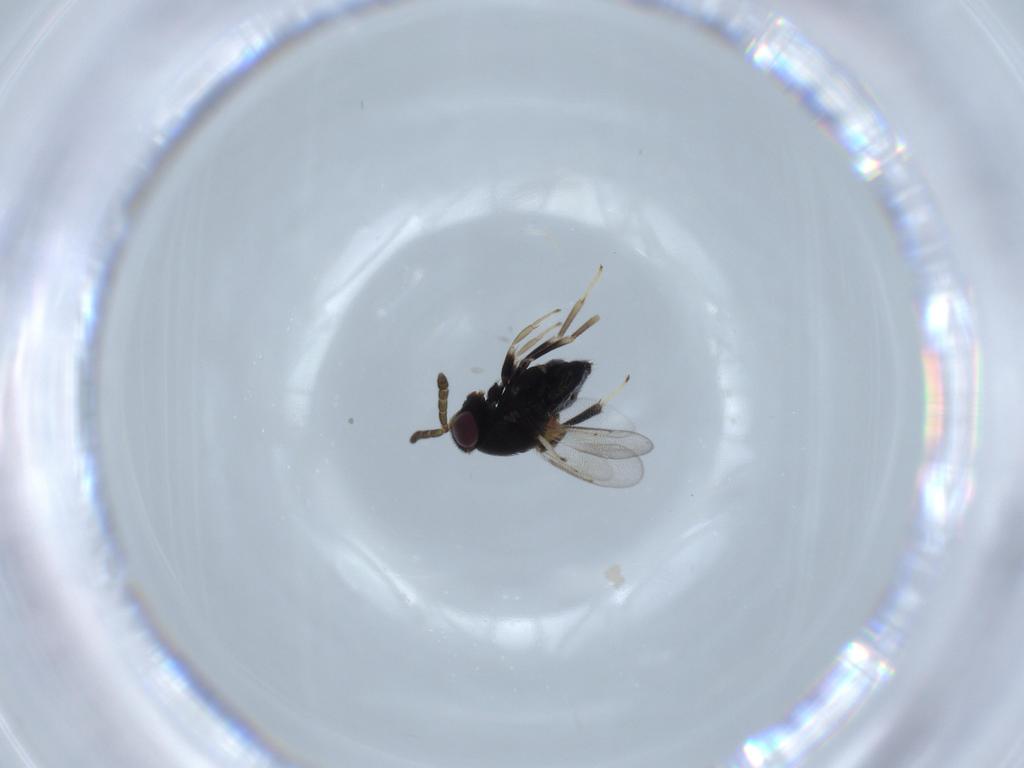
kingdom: Animalia
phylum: Arthropoda
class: Insecta
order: Hymenoptera
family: Aphelinidae
